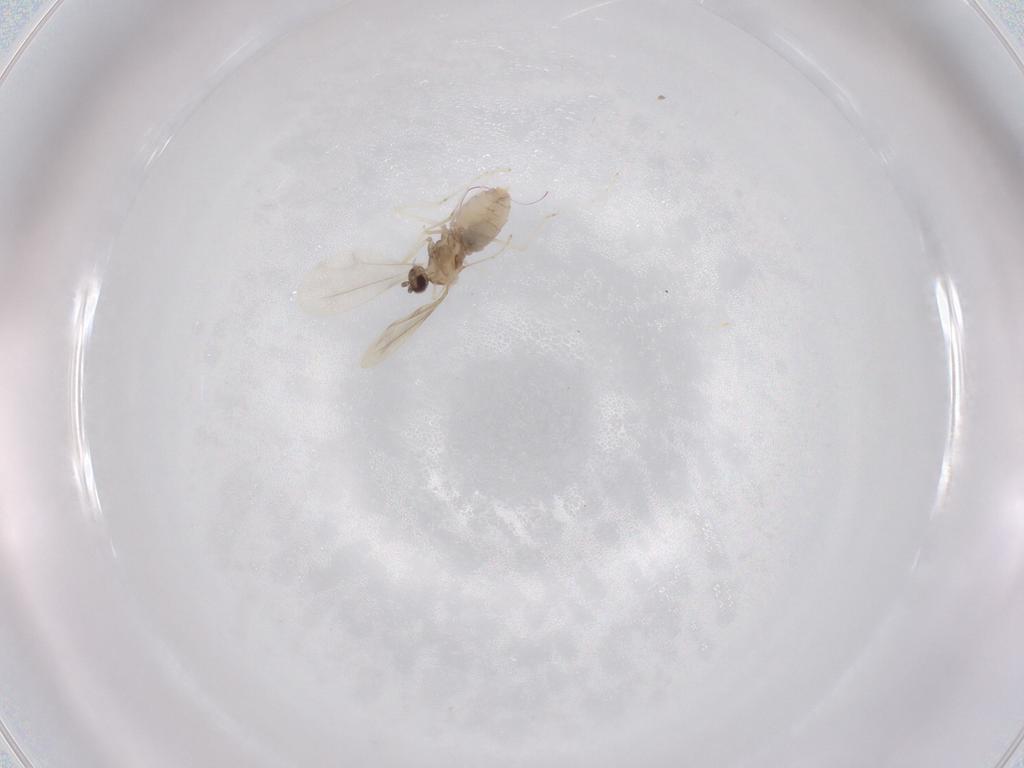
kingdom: Animalia
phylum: Arthropoda
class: Insecta
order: Diptera
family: Cecidomyiidae
